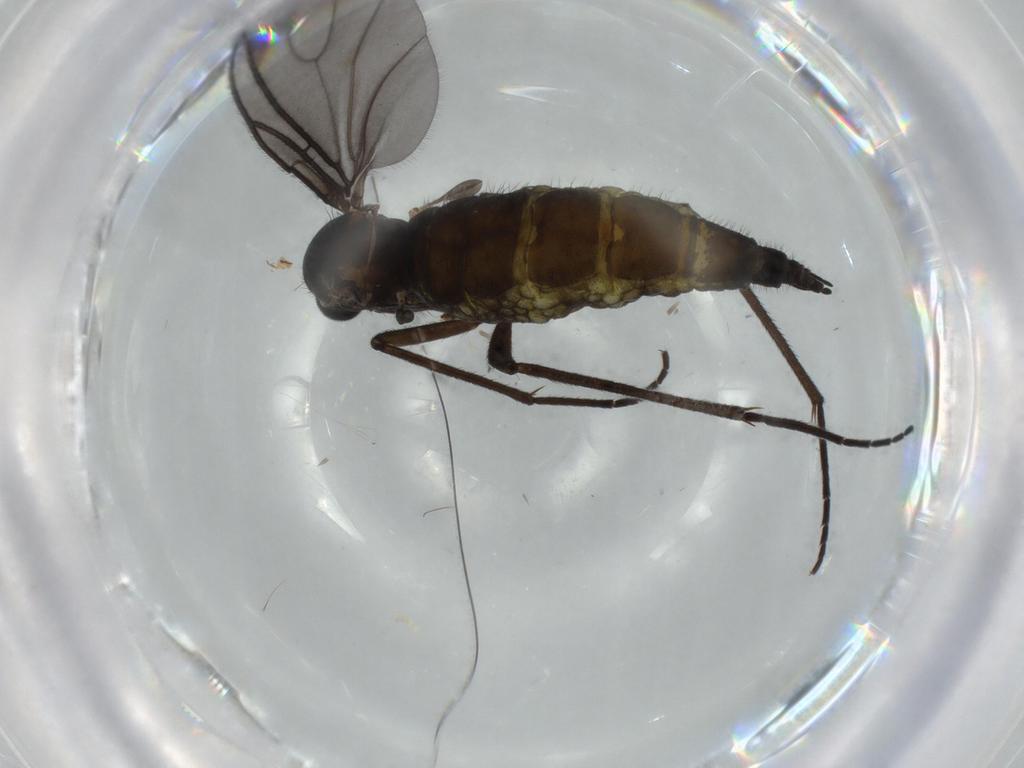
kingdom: Animalia
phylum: Arthropoda
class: Insecta
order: Diptera
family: Sciaridae
